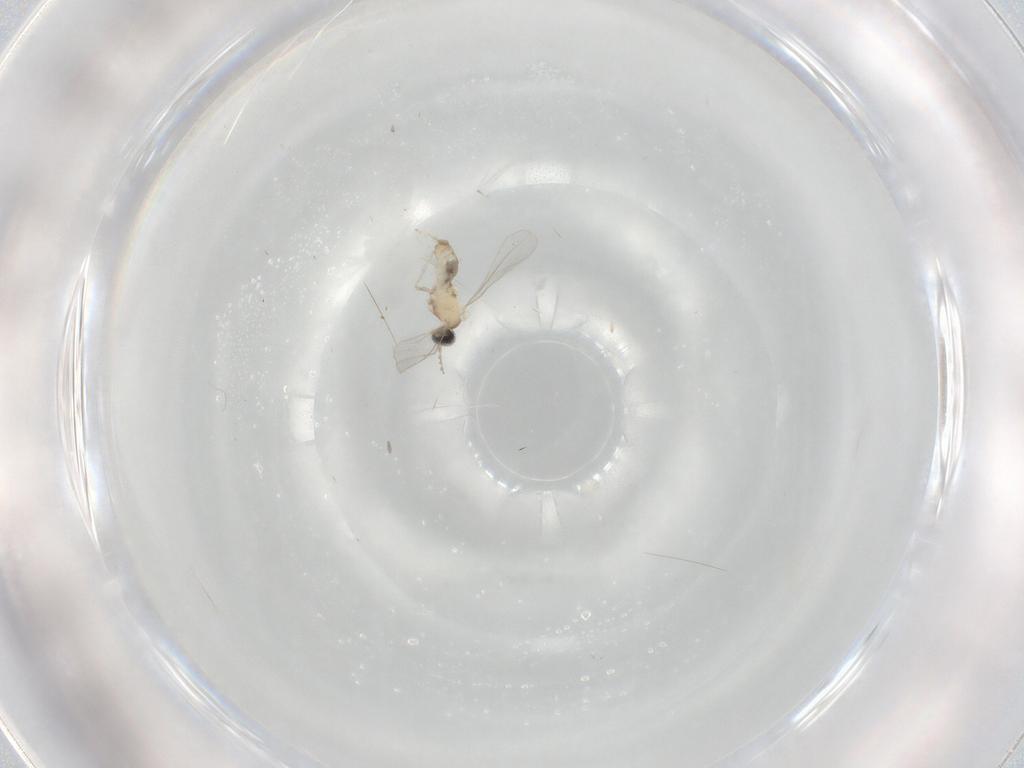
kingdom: Animalia
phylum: Arthropoda
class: Insecta
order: Diptera
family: Cecidomyiidae
